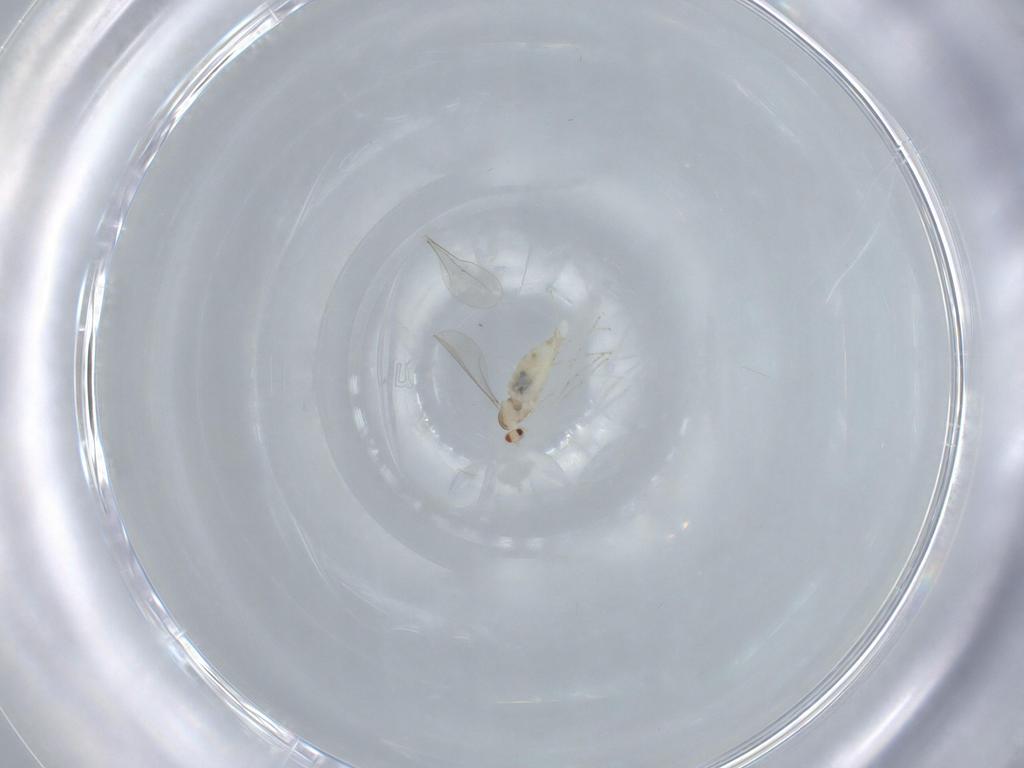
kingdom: Animalia
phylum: Arthropoda
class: Insecta
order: Diptera
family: Cecidomyiidae
